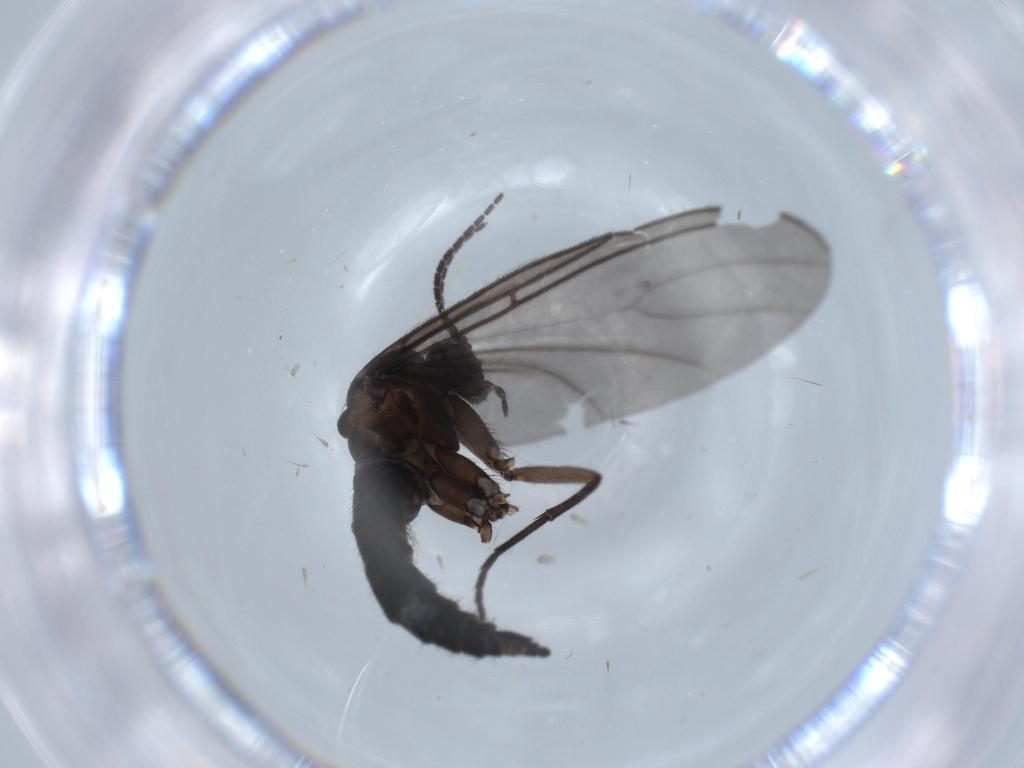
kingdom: Animalia
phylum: Arthropoda
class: Insecta
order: Diptera
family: Sciaridae
